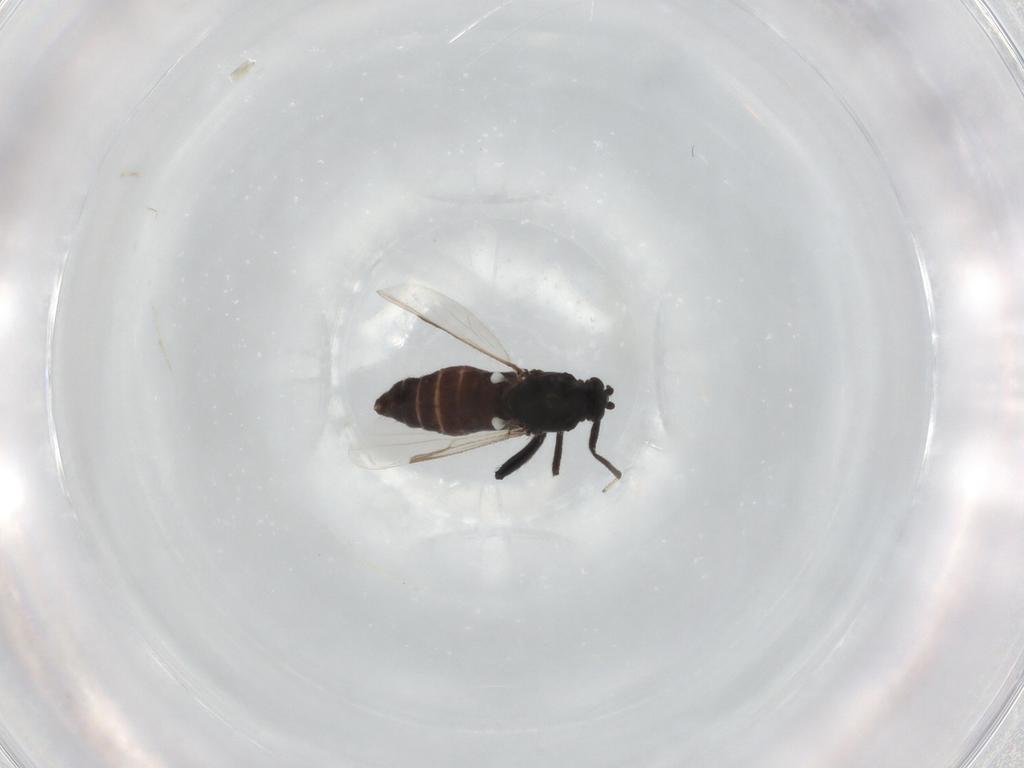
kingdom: Animalia
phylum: Arthropoda
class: Insecta
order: Diptera
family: Ceratopogonidae
